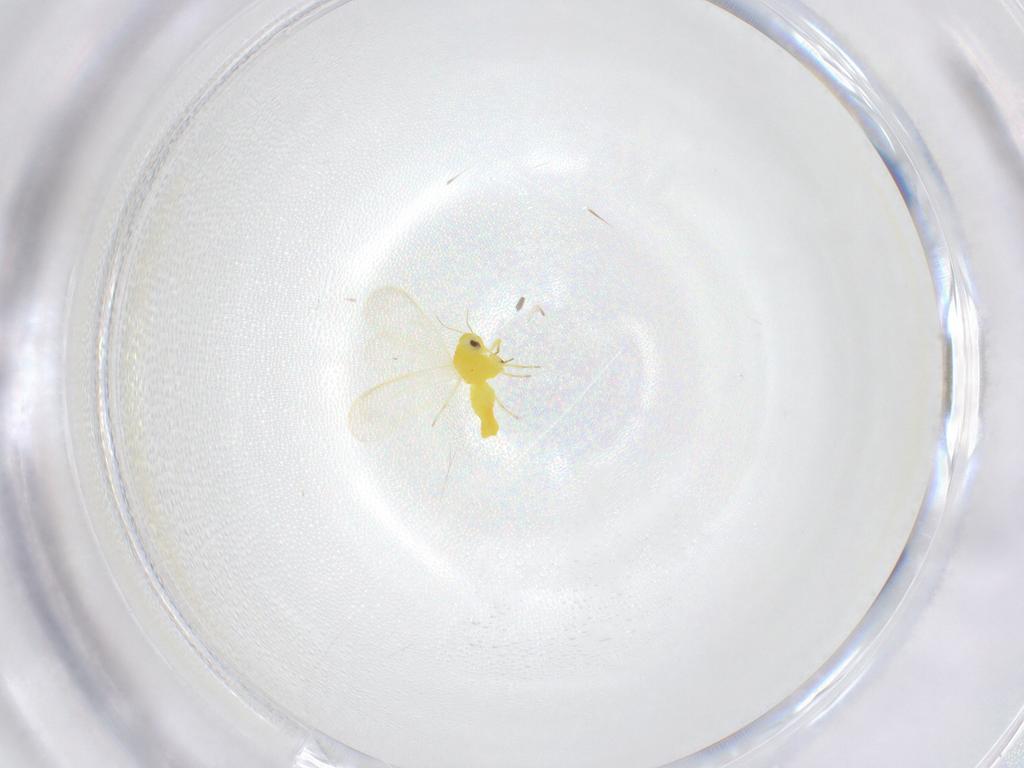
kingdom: Animalia
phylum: Arthropoda
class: Insecta
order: Hemiptera
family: Aleyrodidae
